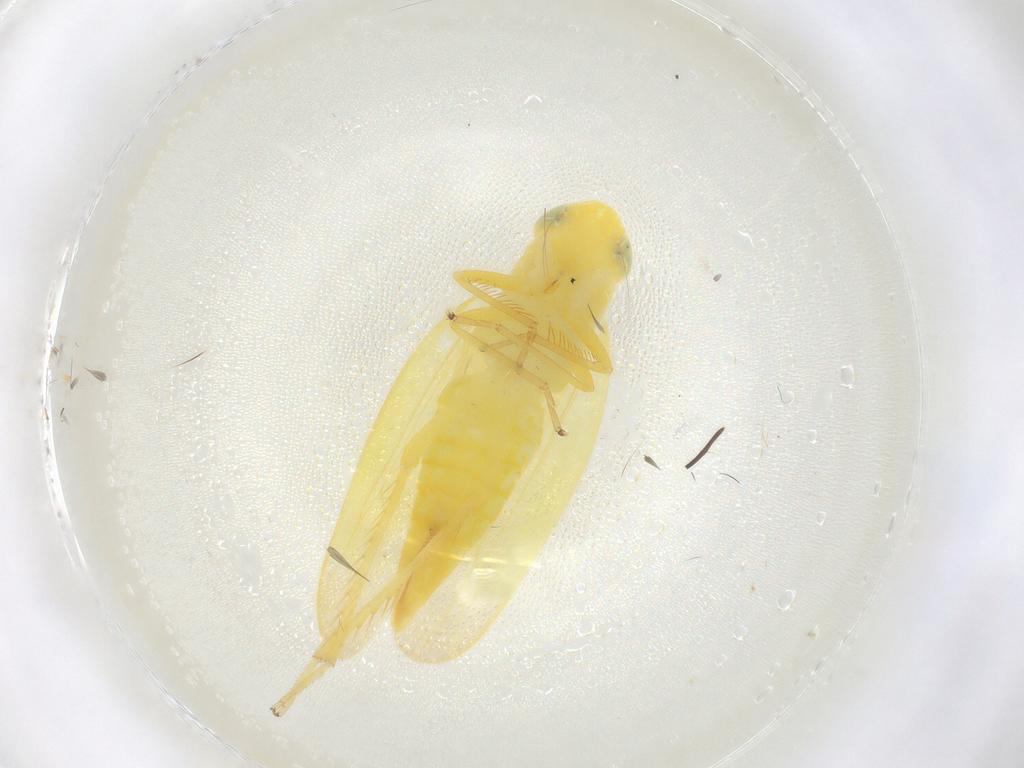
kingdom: Animalia
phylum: Arthropoda
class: Insecta
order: Hemiptera
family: Cicadellidae
